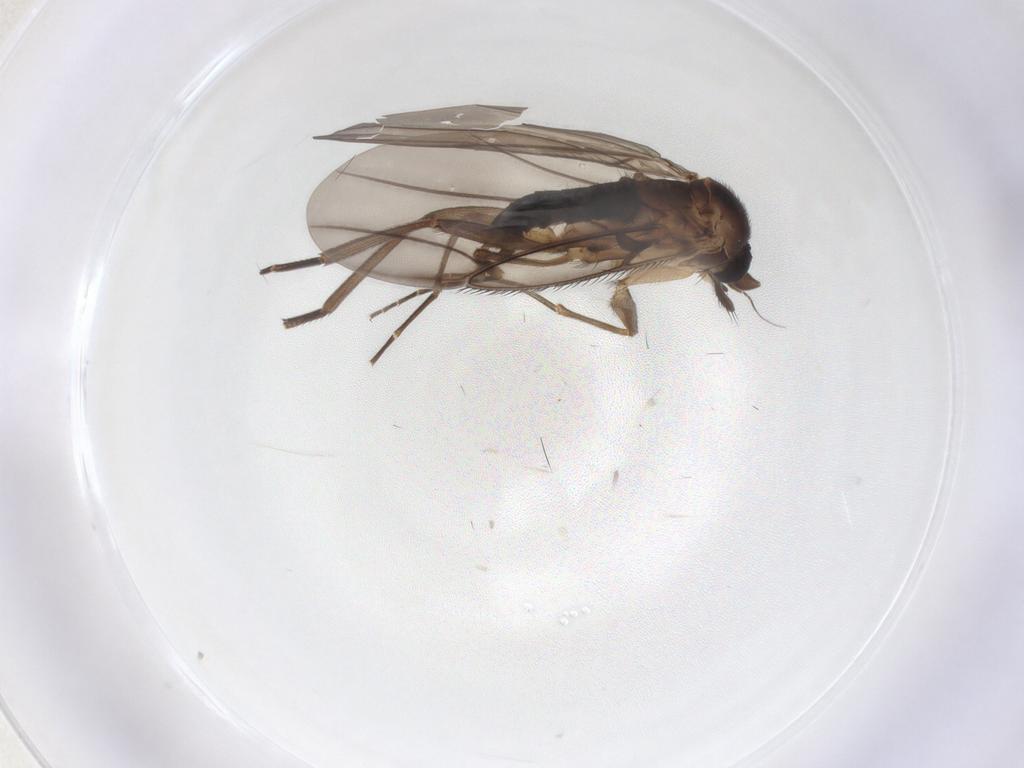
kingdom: Animalia
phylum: Arthropoda
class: Insecta
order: Diptera
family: Phoridae
